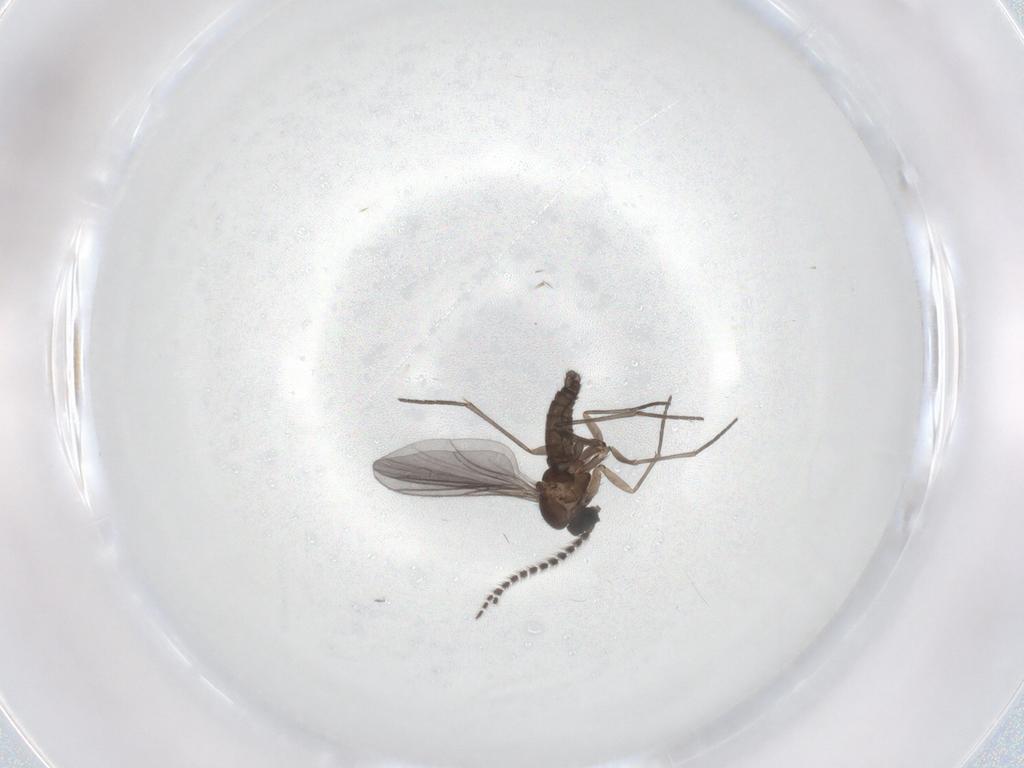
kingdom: Animalia
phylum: Arthropoda
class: Insecta
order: Diptera
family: Sciaridae
